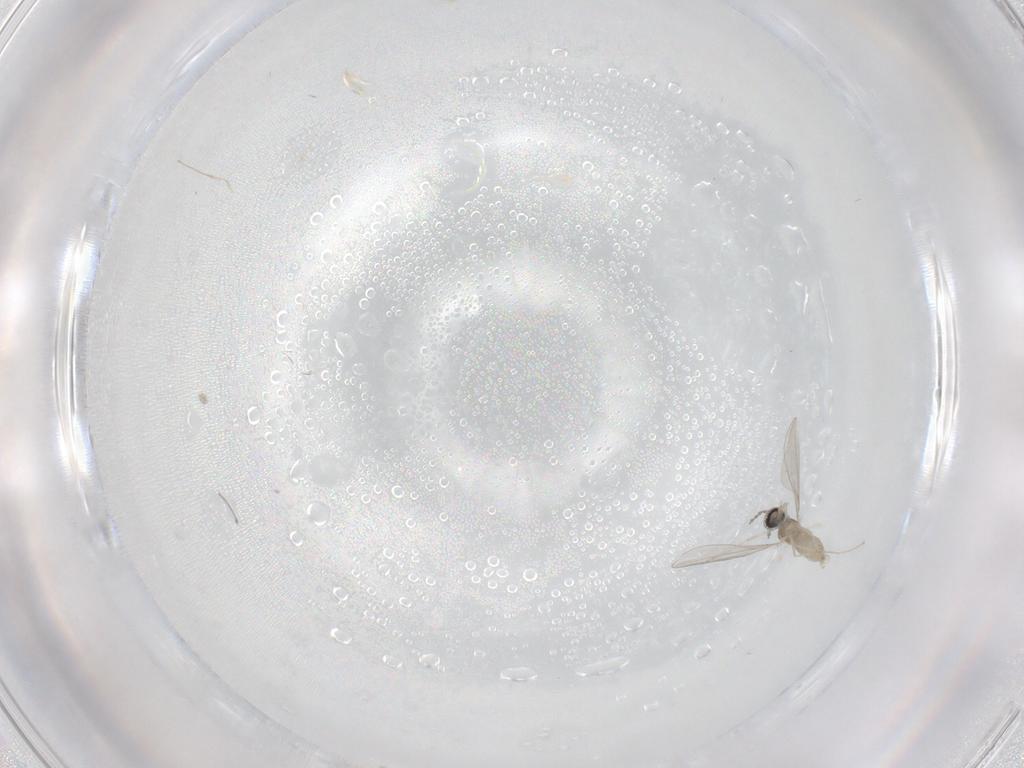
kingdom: Animalia
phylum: Arthropoda
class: Insecta
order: Diptera
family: Cecidomyiidae
